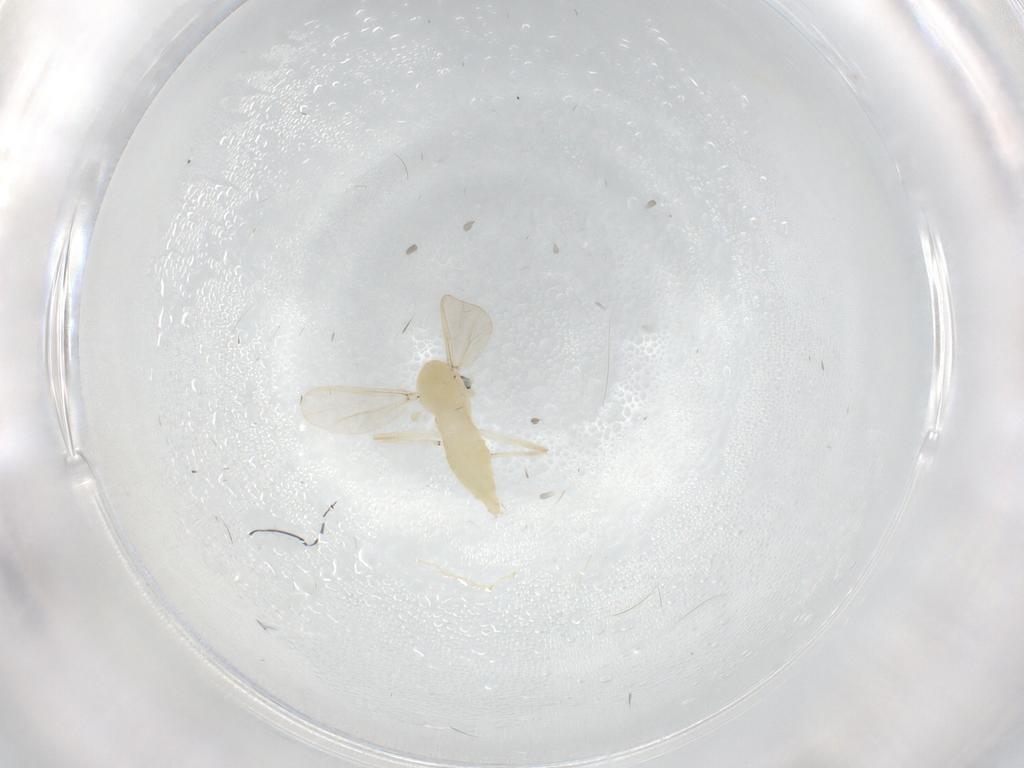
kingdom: Animalia
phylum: Arthropoda
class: Insecta
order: Diptera
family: Chironomidae
